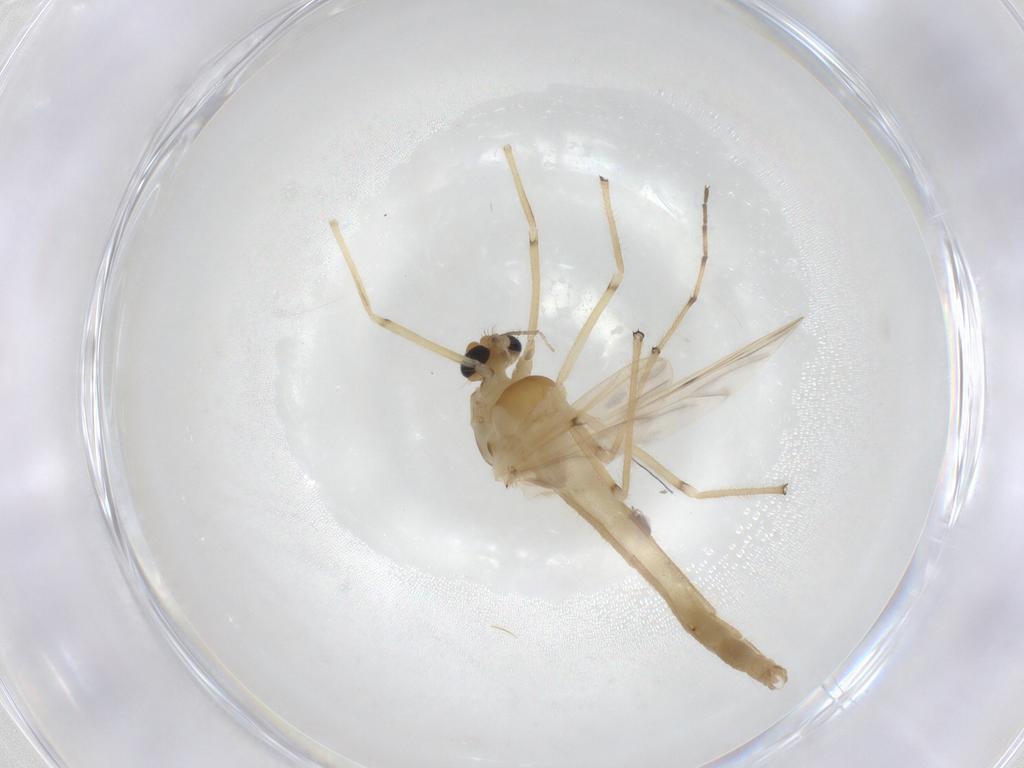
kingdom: Animalia
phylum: Arthropoda
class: Insecta
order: Diptera
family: Chironomidae
